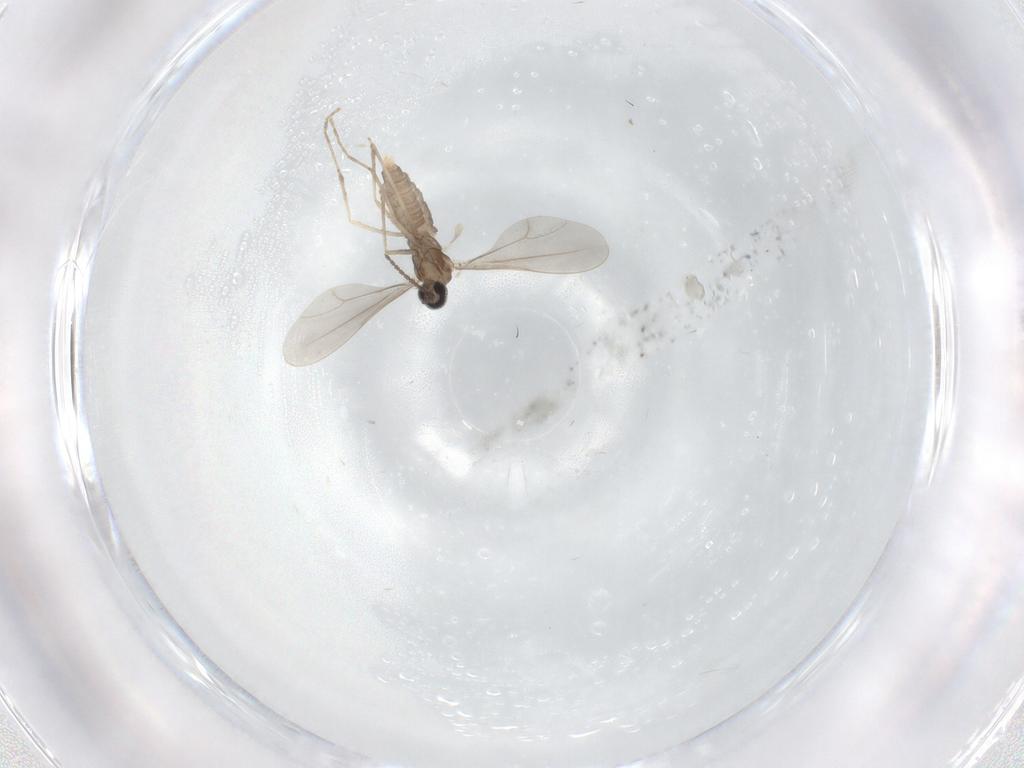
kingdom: Animalia
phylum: Arthropoda
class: Insecta
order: Diptera
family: Cecidomyiidae
